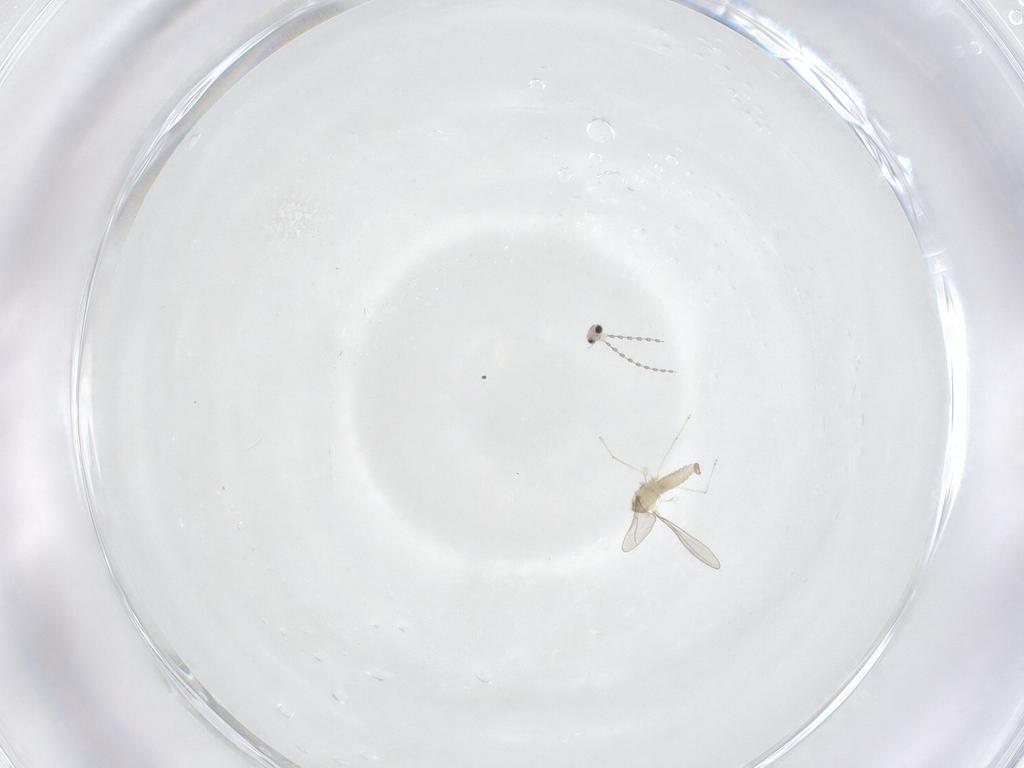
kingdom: Animalia
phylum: Arthropoda
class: Insecta
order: Diptera
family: Cecidomyiidae
